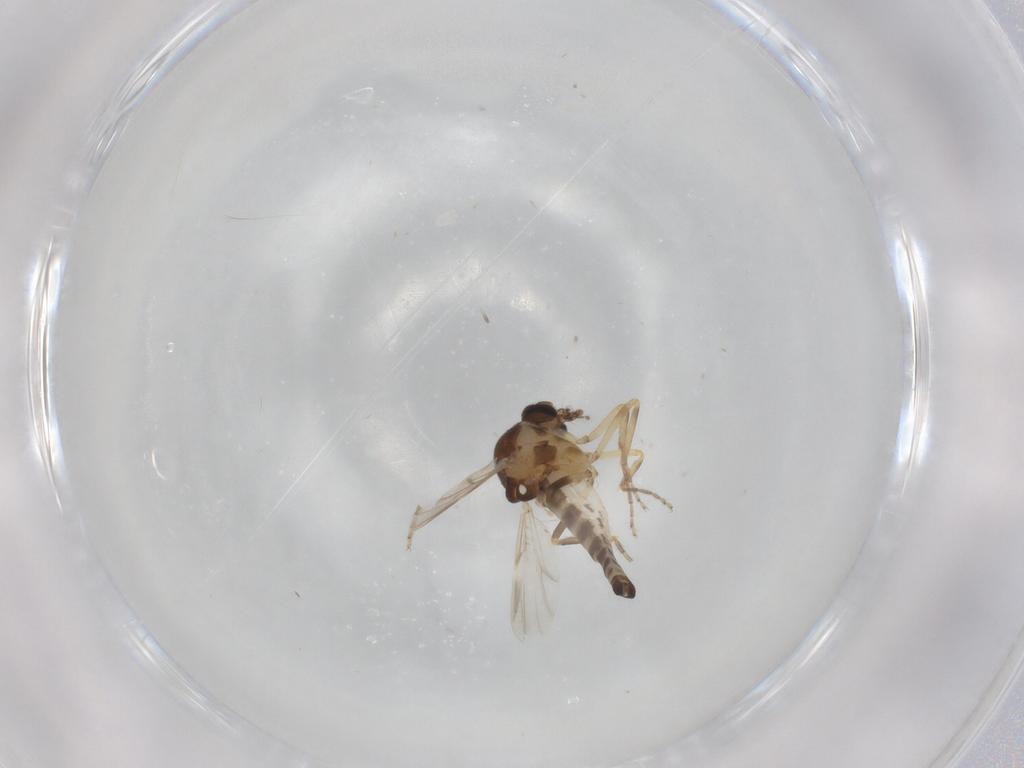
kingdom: Animalia
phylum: Arthropoda
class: Insecta
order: Diptera
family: Ceratopogonidae
